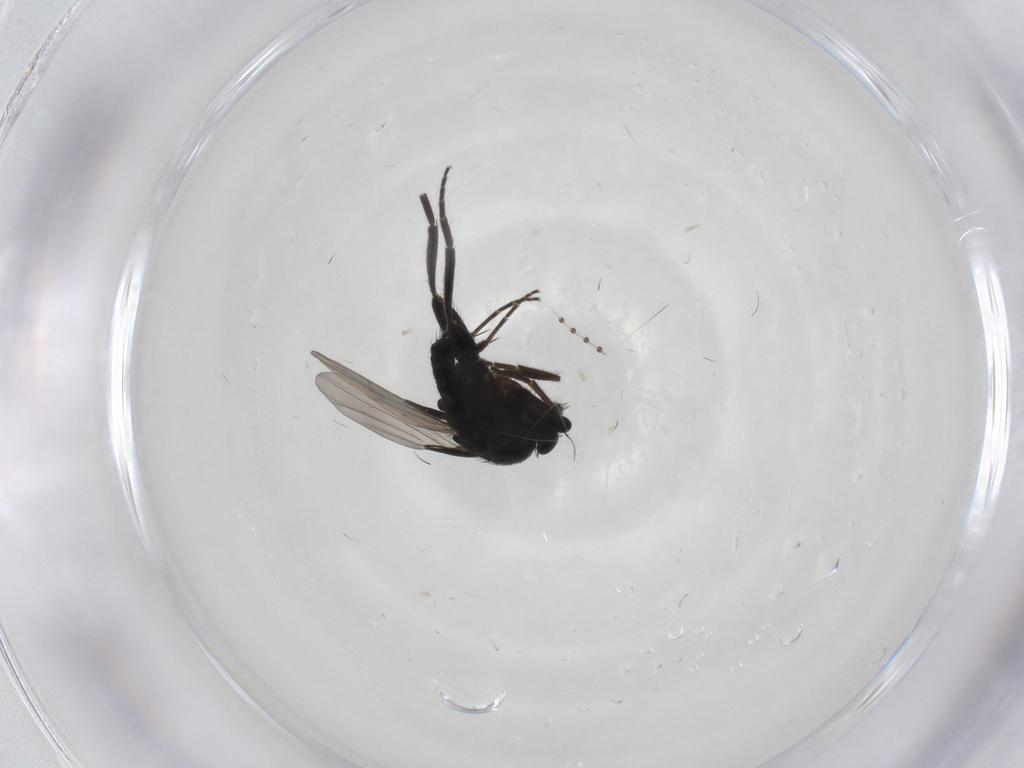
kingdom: Animalia
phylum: Arthropoda
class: Insecta
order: Diptera
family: Phoridae
